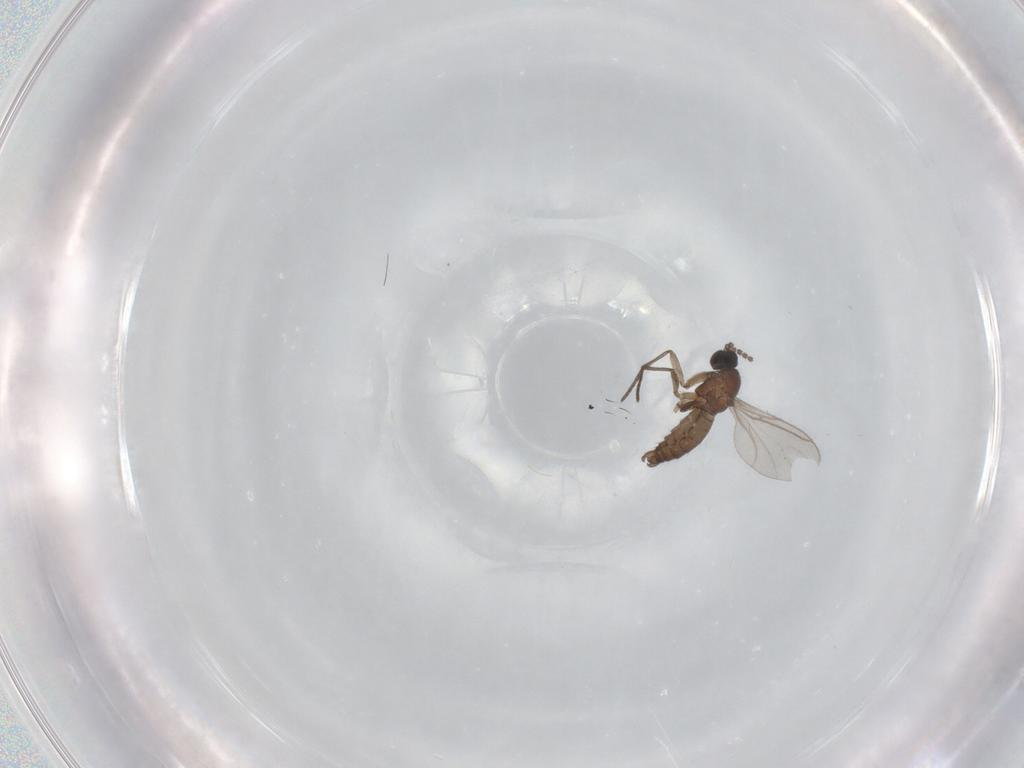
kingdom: Animalia
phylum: Arthropoda
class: Insecta
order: Diptera
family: Cecidomyiidae
